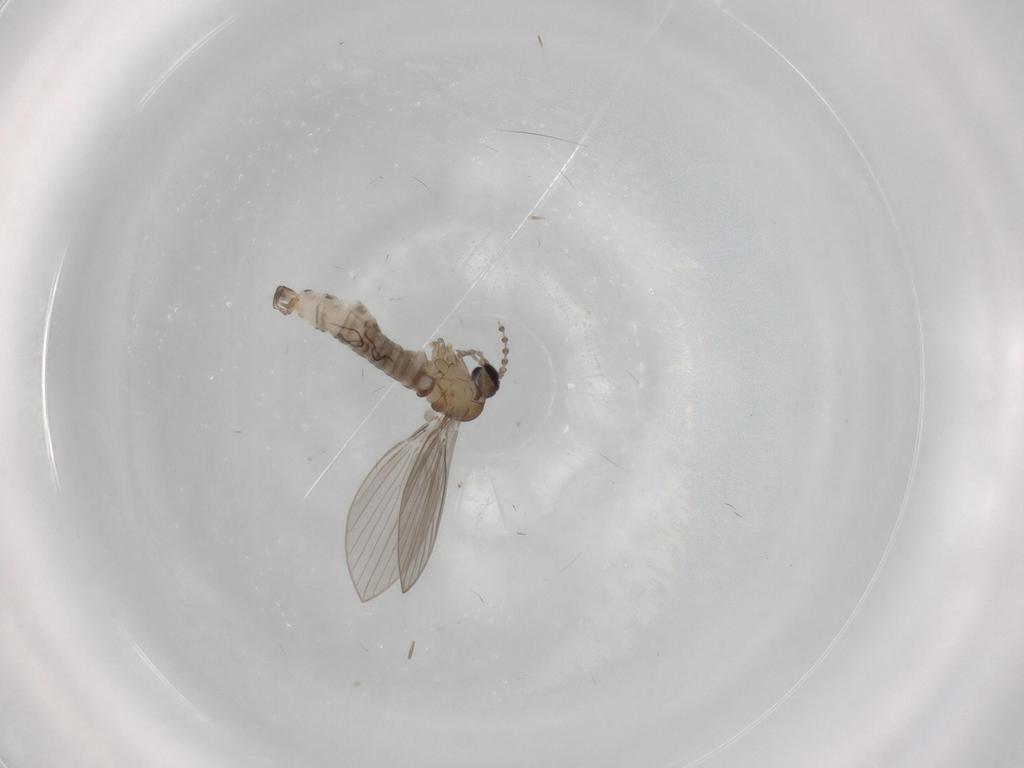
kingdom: Animalia
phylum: Arthropoda
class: Insecta
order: Diptera
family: Psychodidae
